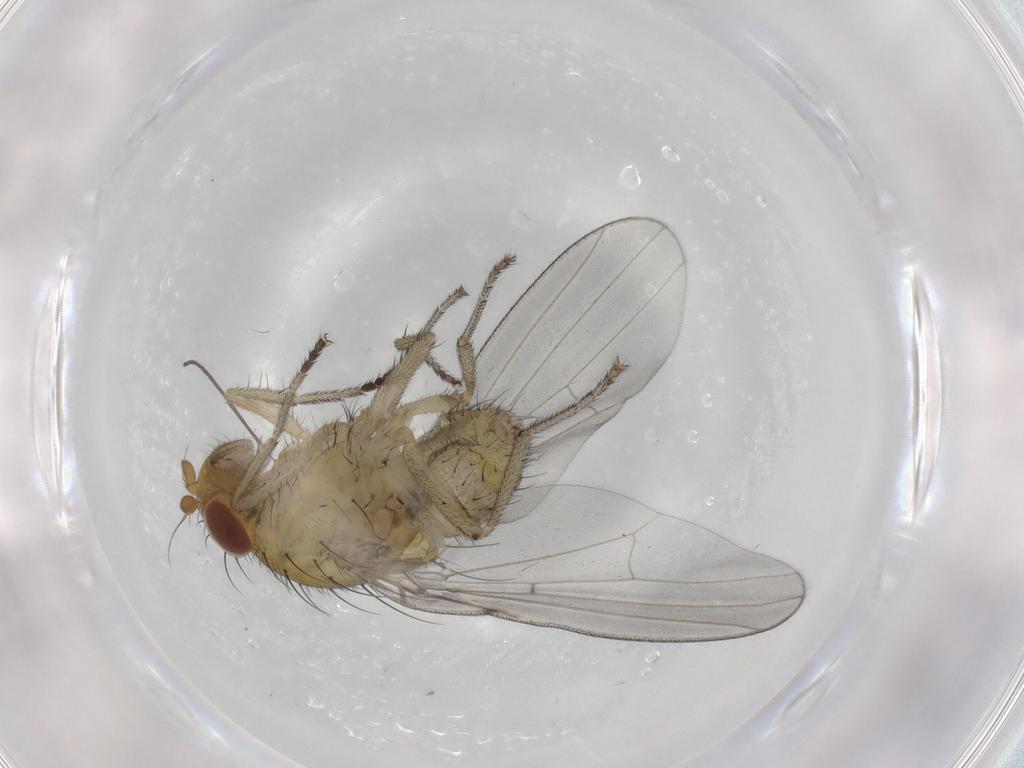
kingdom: Animalia
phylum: Arthropoda
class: Insecta
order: Diptera
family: Cecidomyiidae
